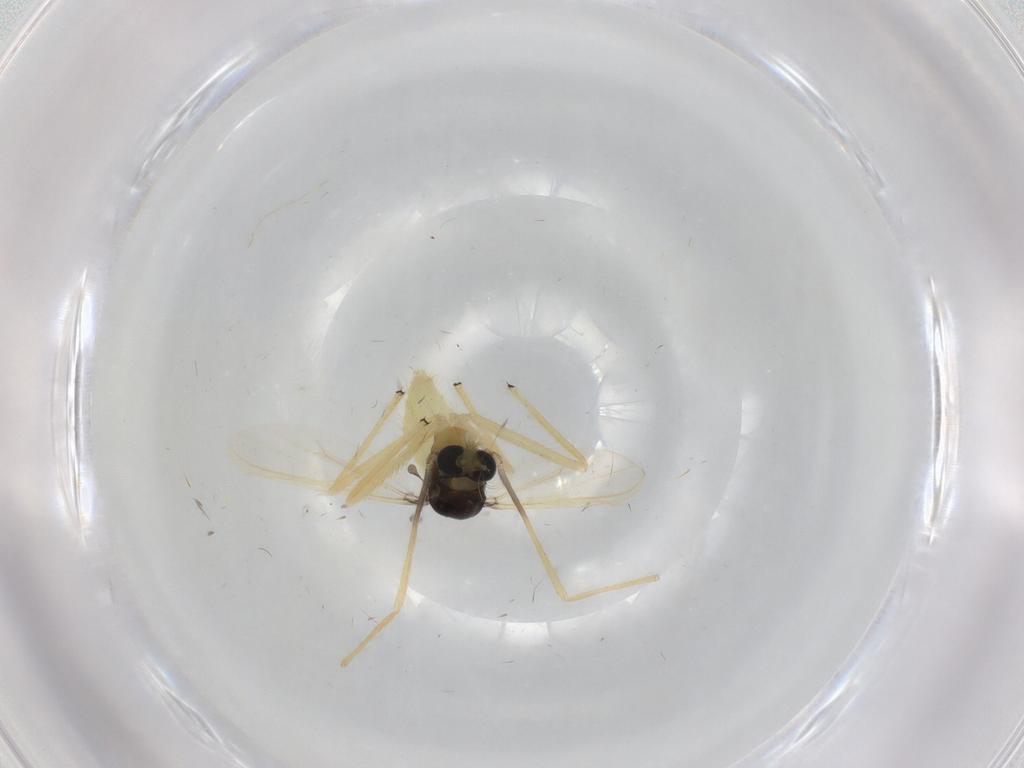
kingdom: Animalia
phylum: Arthropoda
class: Insecta
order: Diptera
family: Chironomidae
